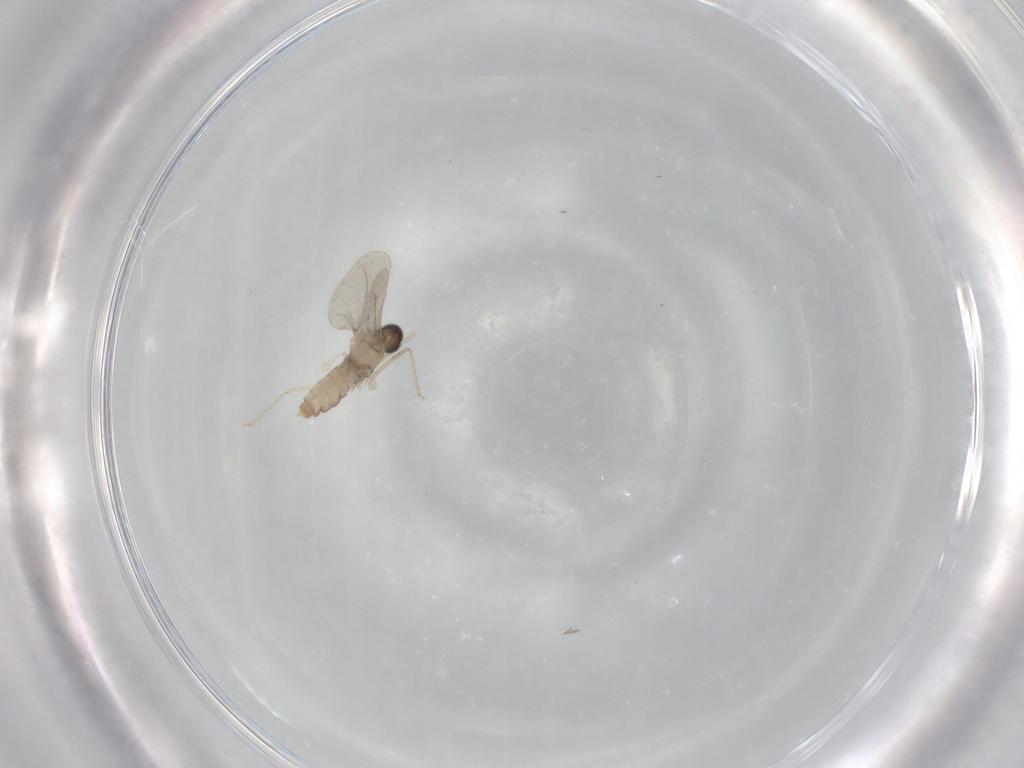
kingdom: Animalia
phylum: Arthropoda
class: Insecta
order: Diptera
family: Cecidomyiidae
